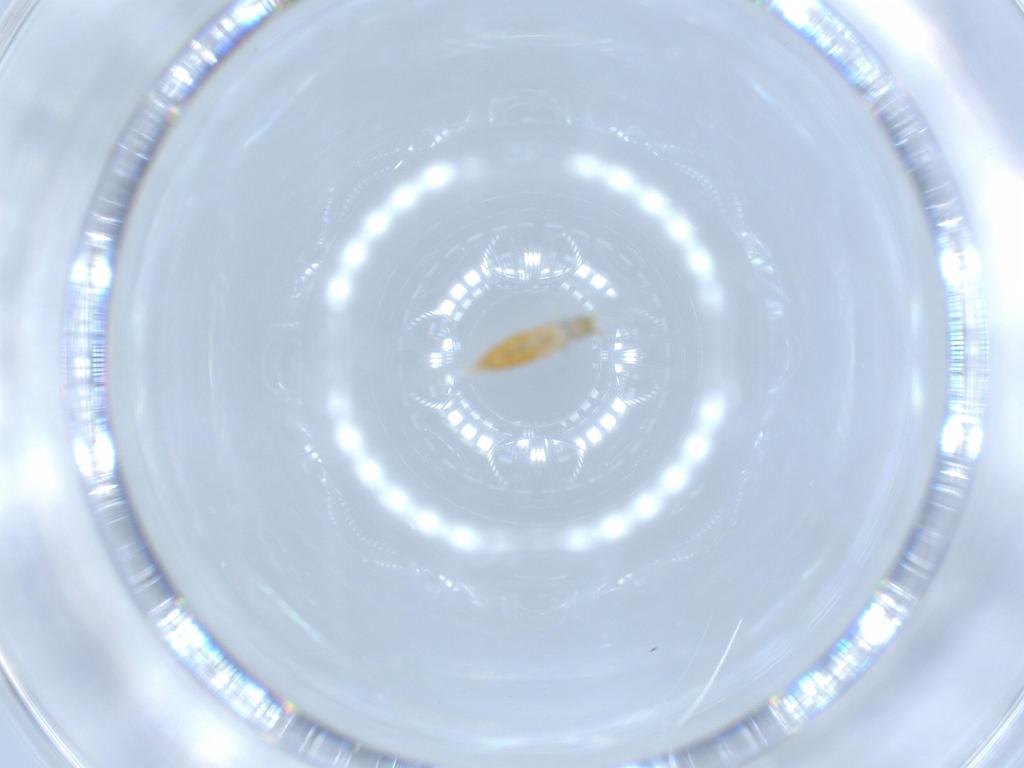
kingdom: Animalia
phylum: Arthropoda
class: Collembola
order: Entomobryomorpha
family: Entomobryidae
